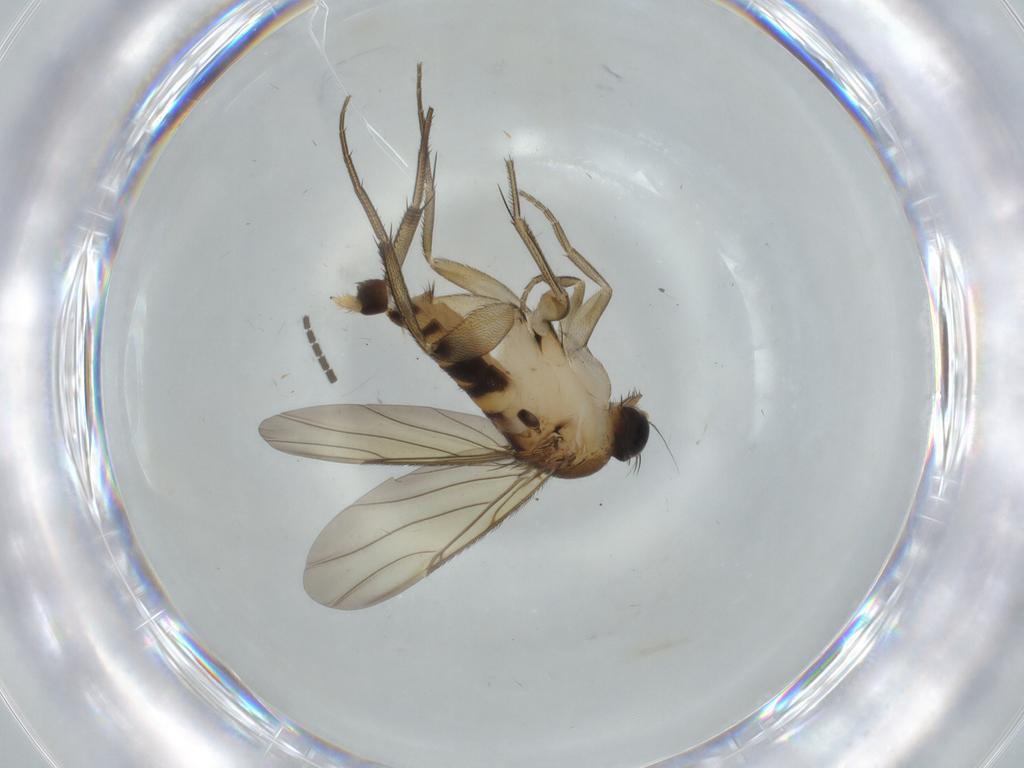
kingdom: Animalia
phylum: Arthropoda
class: Insecta
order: Diptera
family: Sciaridae
